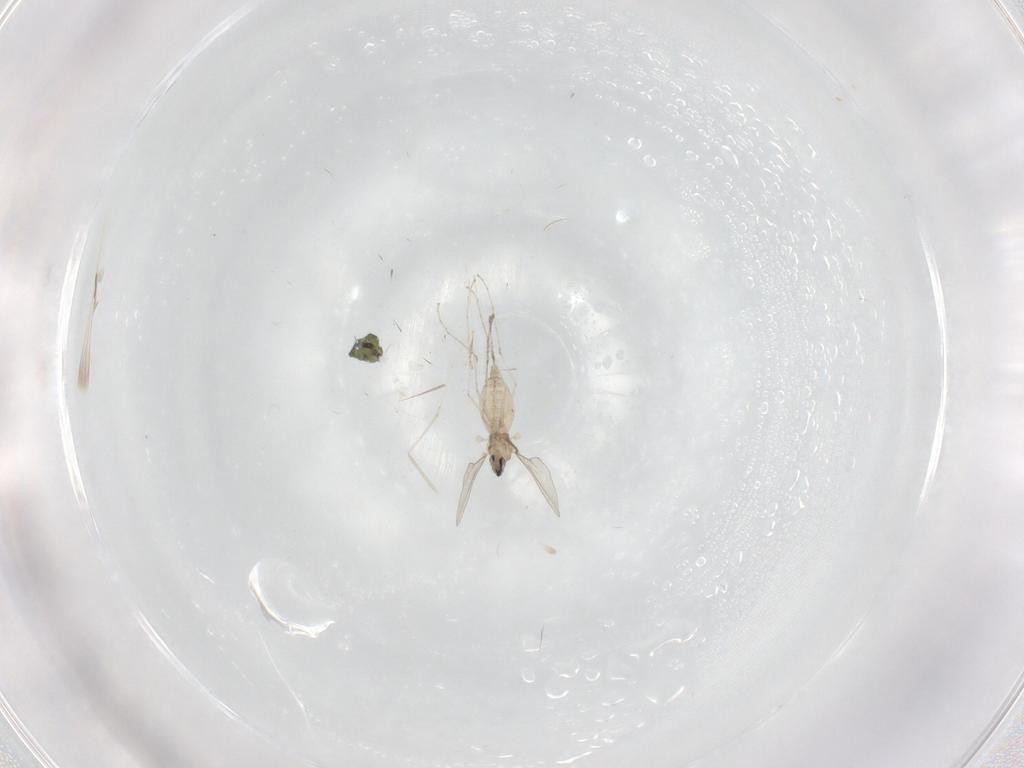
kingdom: Animalia
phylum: Arthropoda
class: Insecta
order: Diptera
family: Cecidomyiidae
